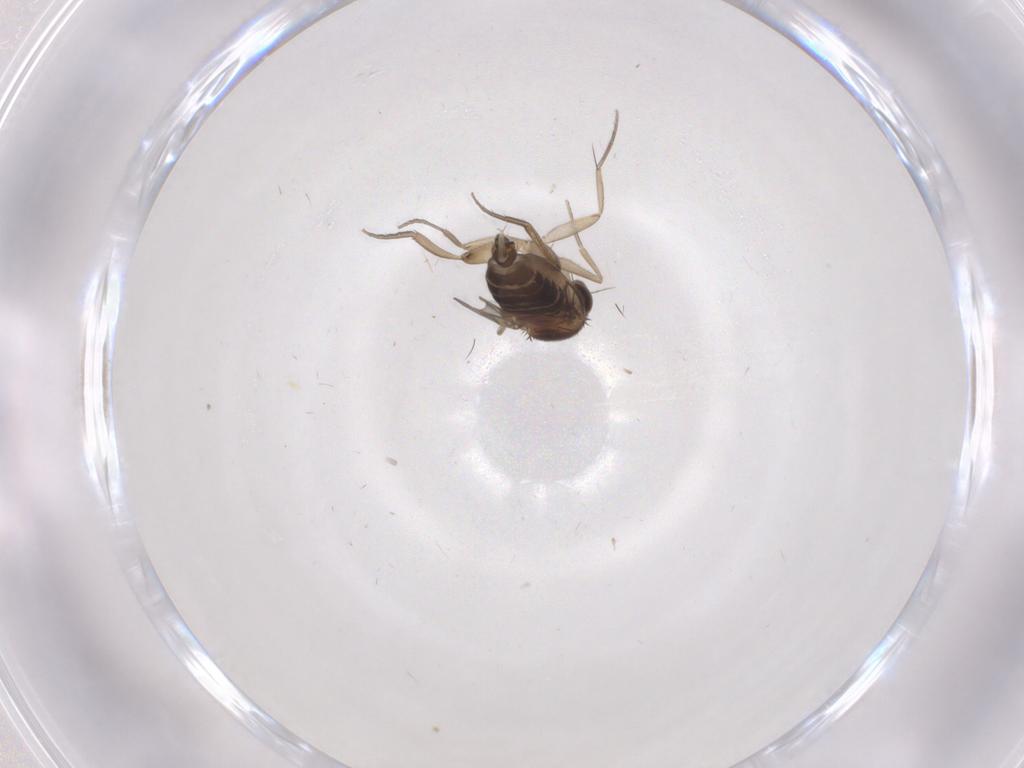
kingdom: Animalia
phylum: Arthropoda
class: Insecta
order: Diptera
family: Phoridae
